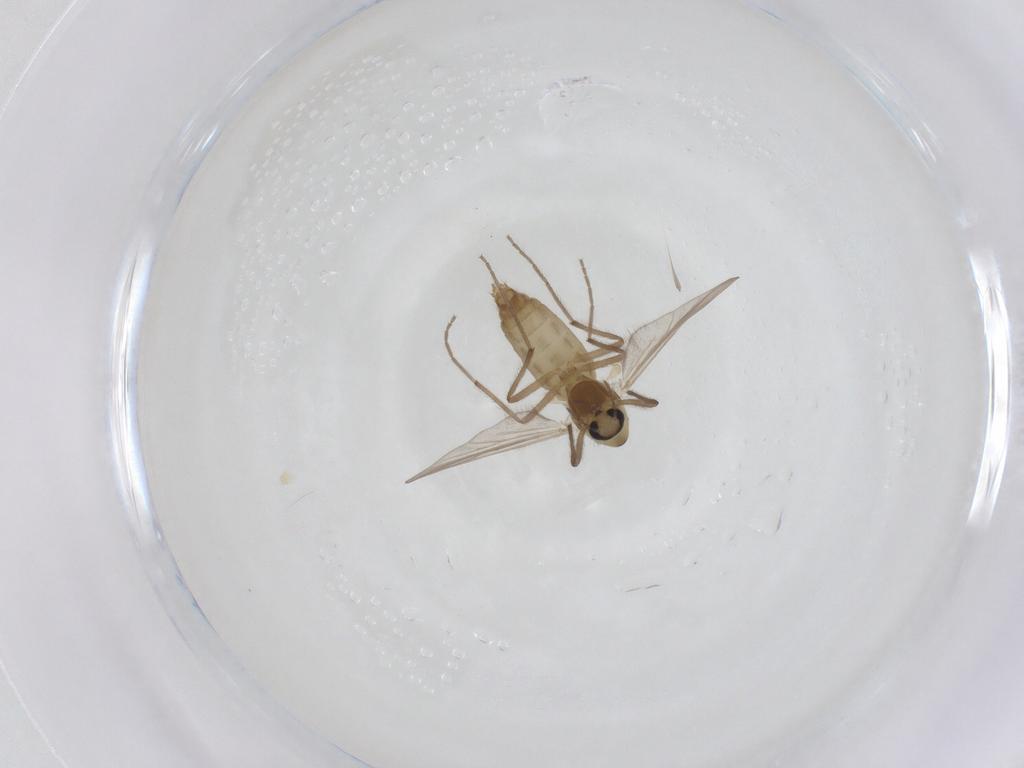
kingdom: Animalia
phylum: Arthropoda
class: Insecta
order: Diptera
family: Chironomidae
